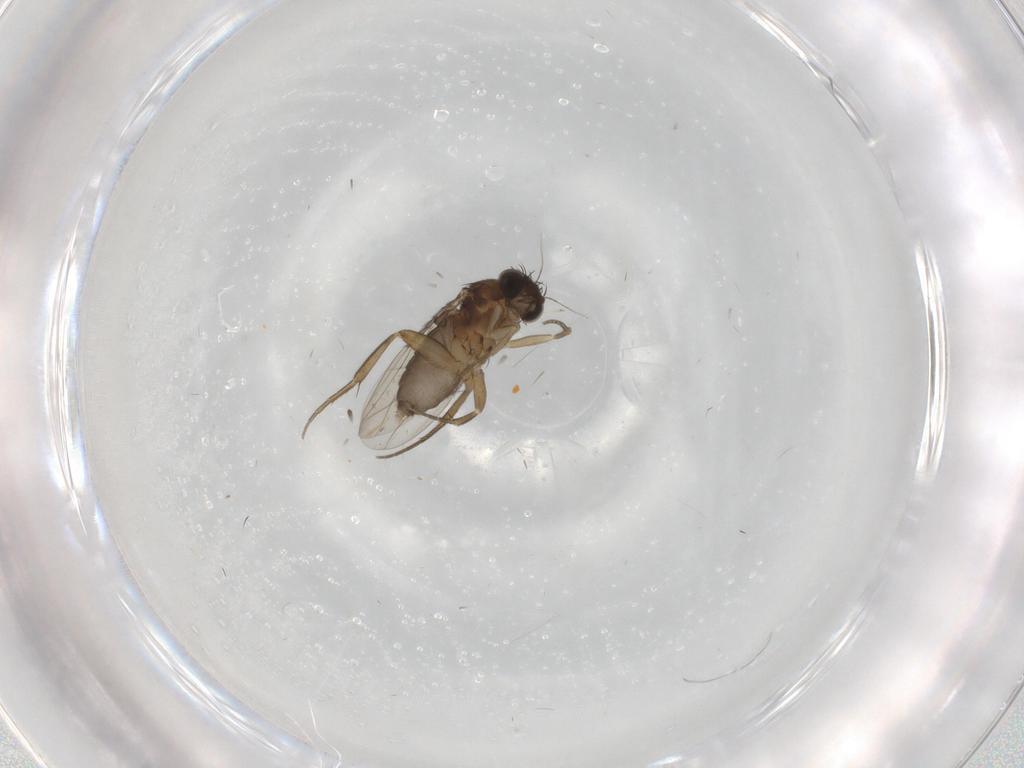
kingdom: Animalia
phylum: Arthropoda
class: Insecta
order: Diptera
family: Phoridae
